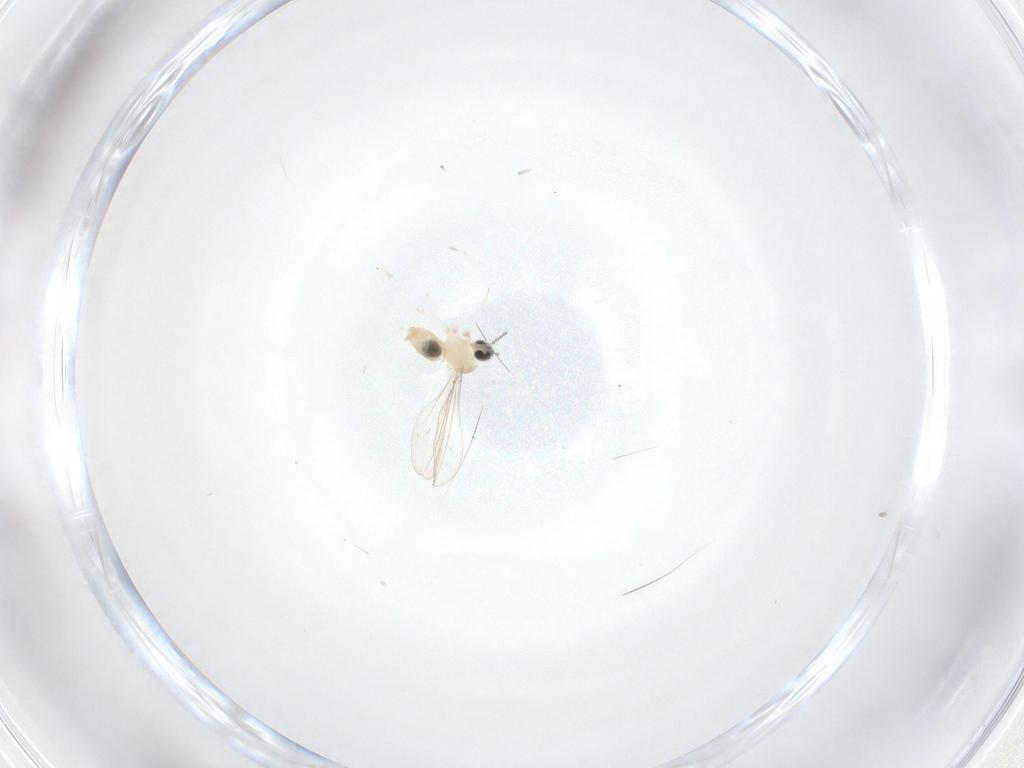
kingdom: Animalia
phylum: Arthropoda
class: Insecta
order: Diptera
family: Cecidomyiidae
